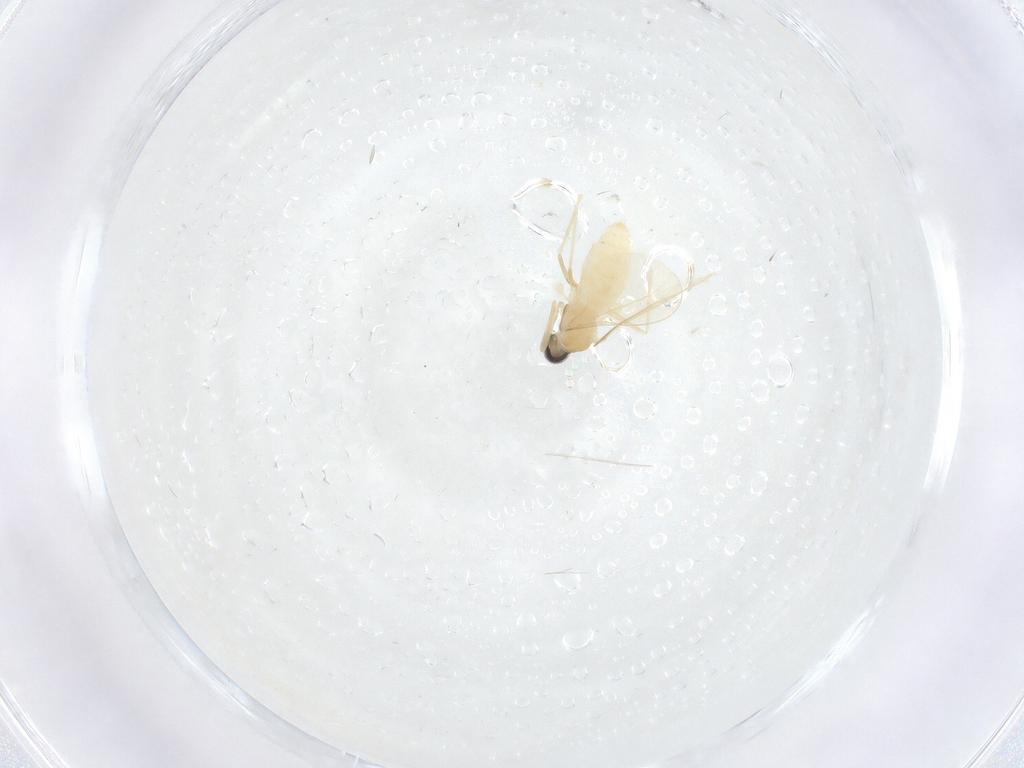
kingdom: Animalia
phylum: Arthropoda
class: Insecta
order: Diptera
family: Cecidomyiidae
